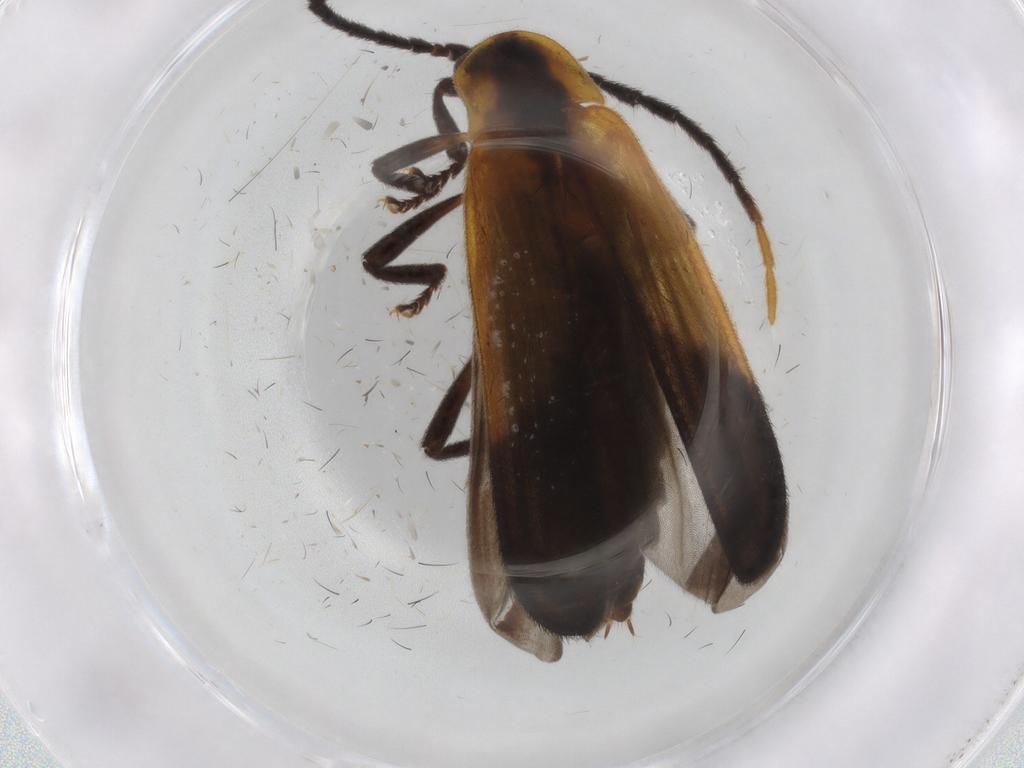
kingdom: Animalia
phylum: Arthropoda
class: Insecta
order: Coleoptera
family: Lycidae
